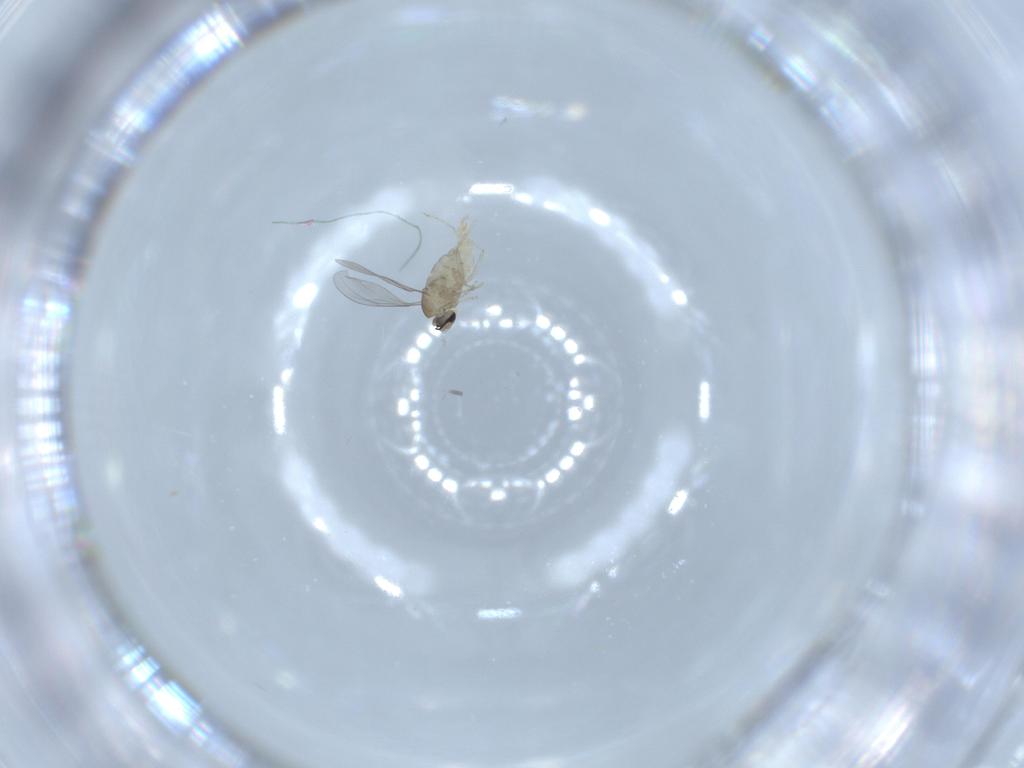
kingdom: Animalia
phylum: Arthropoda
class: Insecta
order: Diptera
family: Cecidomyiidae
